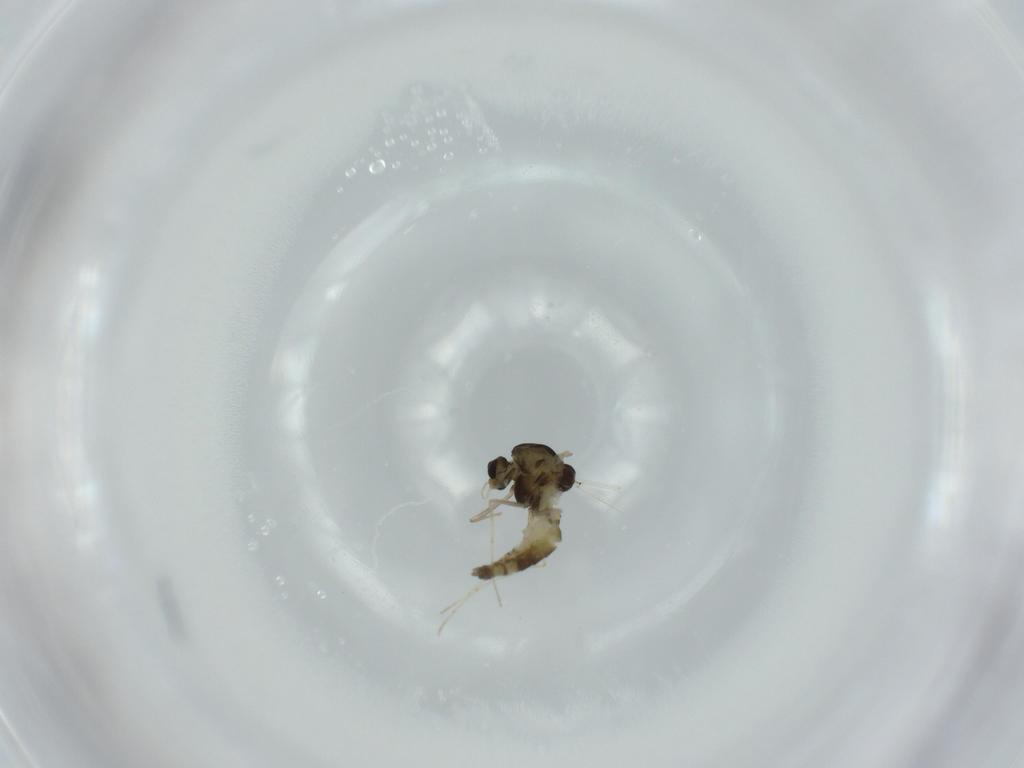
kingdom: Animalia
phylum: Arthropoda
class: Insecta
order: Diptera
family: Chironomidae
